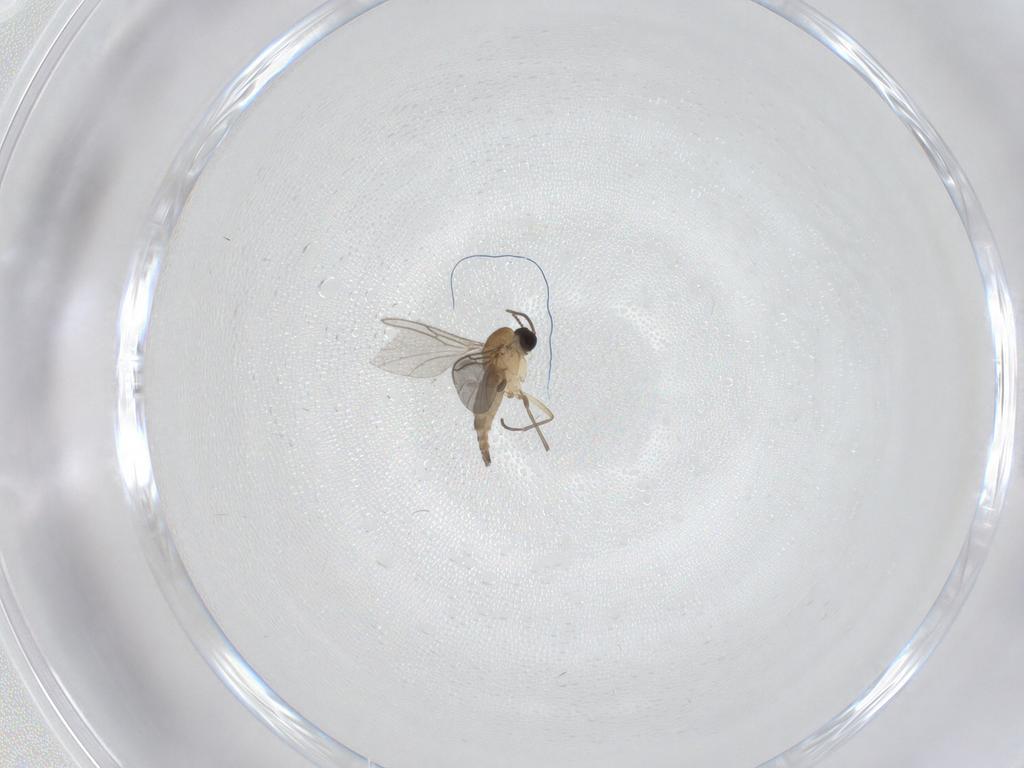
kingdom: Animalia
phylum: Arthropoda
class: Insecta
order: Diptera
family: Sciaridae
